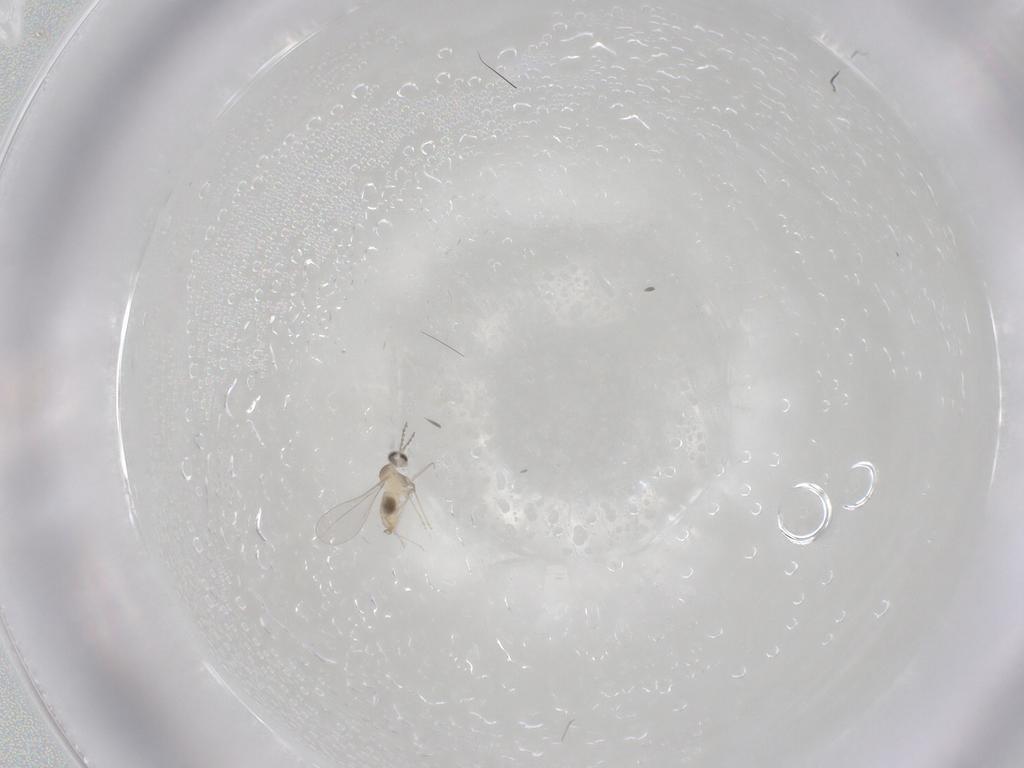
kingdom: Animalia
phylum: Arthropoda
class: Insecta
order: Diptera
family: Cecidomyiidae
